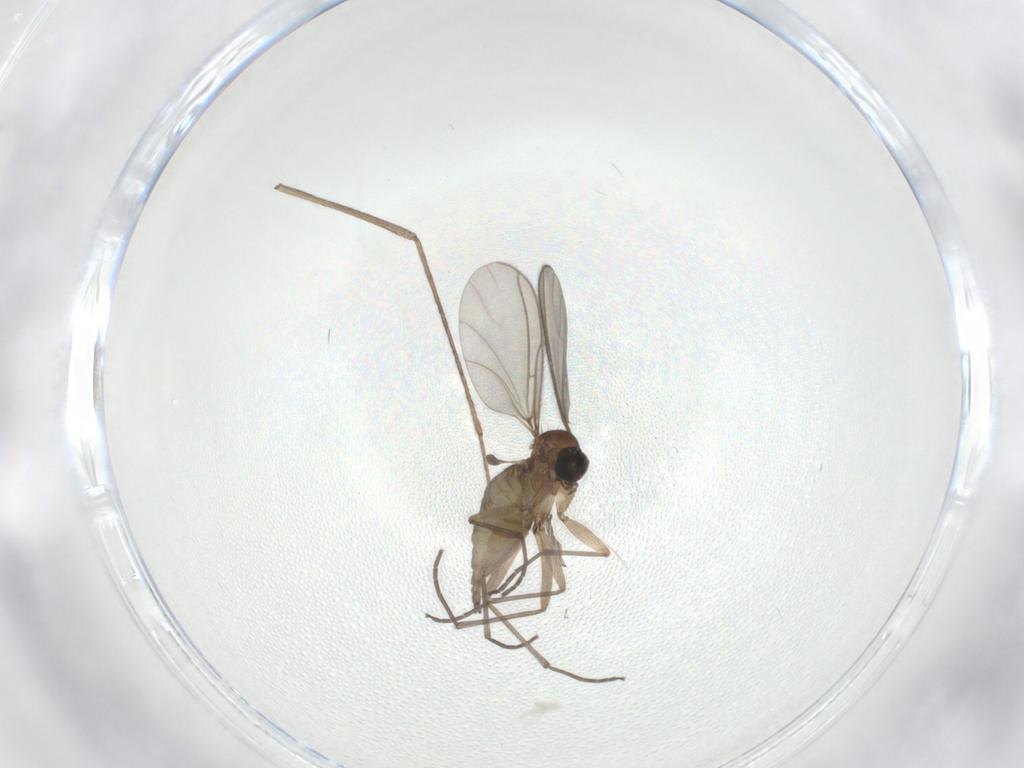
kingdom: Animalia
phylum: Arthropoda
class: Insecta
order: Diptera
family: Sciaridae
